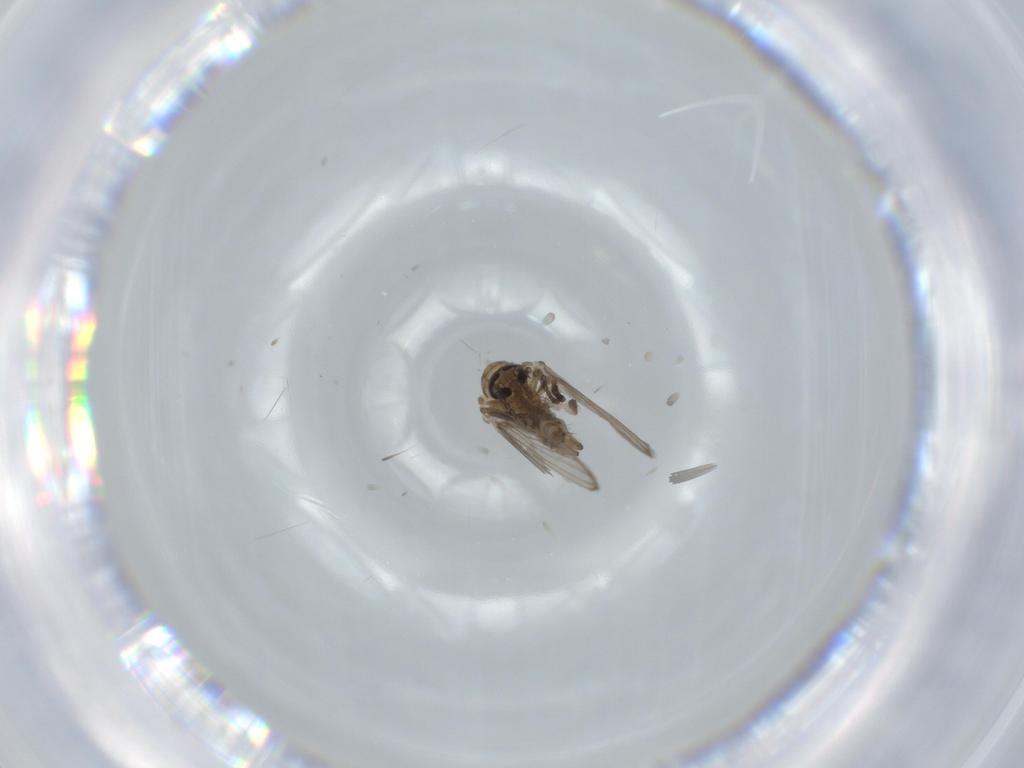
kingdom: Animalia
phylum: Arthropoda
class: Insecta
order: Diptera
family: Psychodidae
